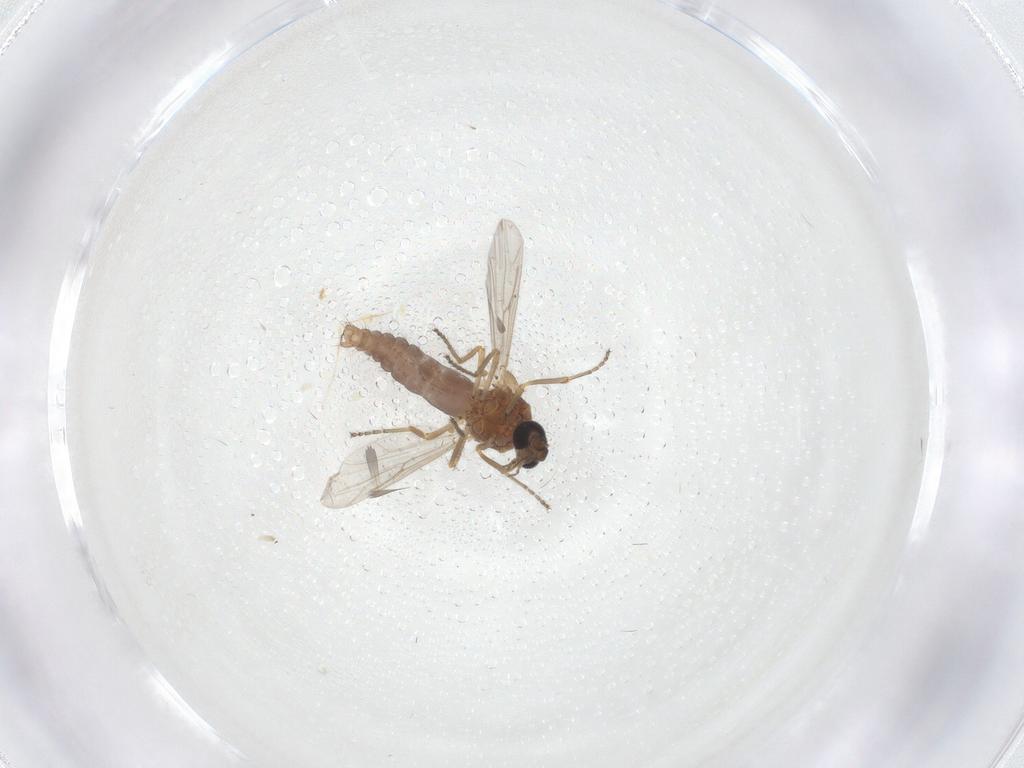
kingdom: Animalia
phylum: Arthropoda
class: Insecta
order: Diptera
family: Ceratopogonidae
